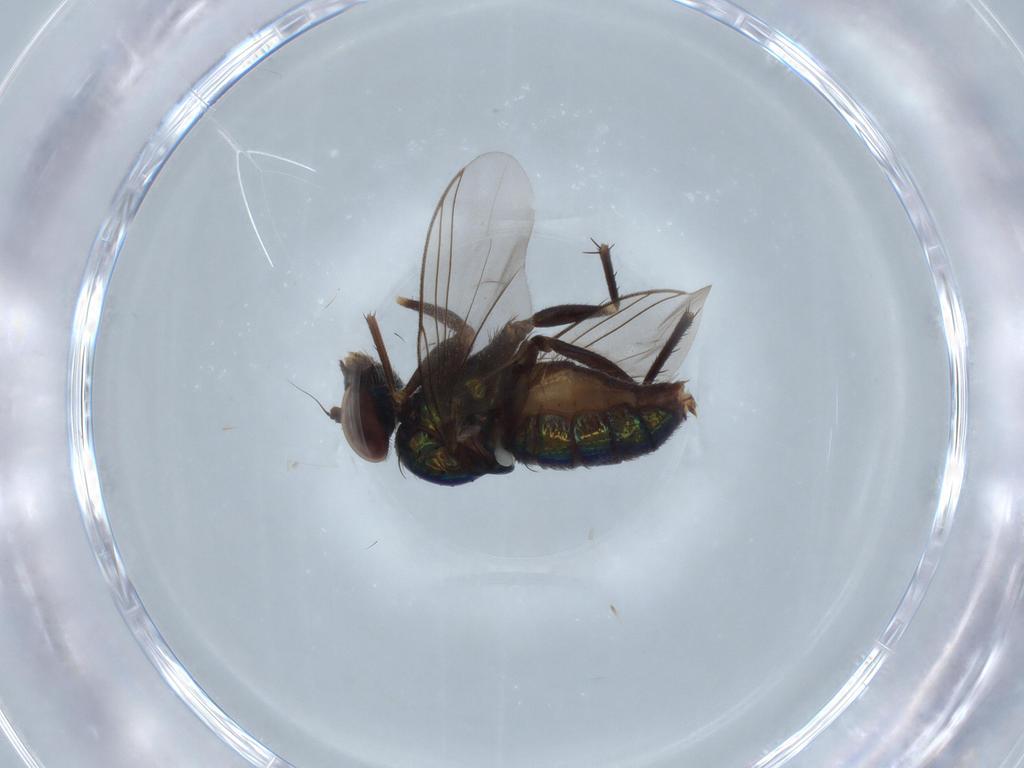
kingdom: Animalia
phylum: Arthropoda
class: Insecta
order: Diptera
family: Dolichopodidae
